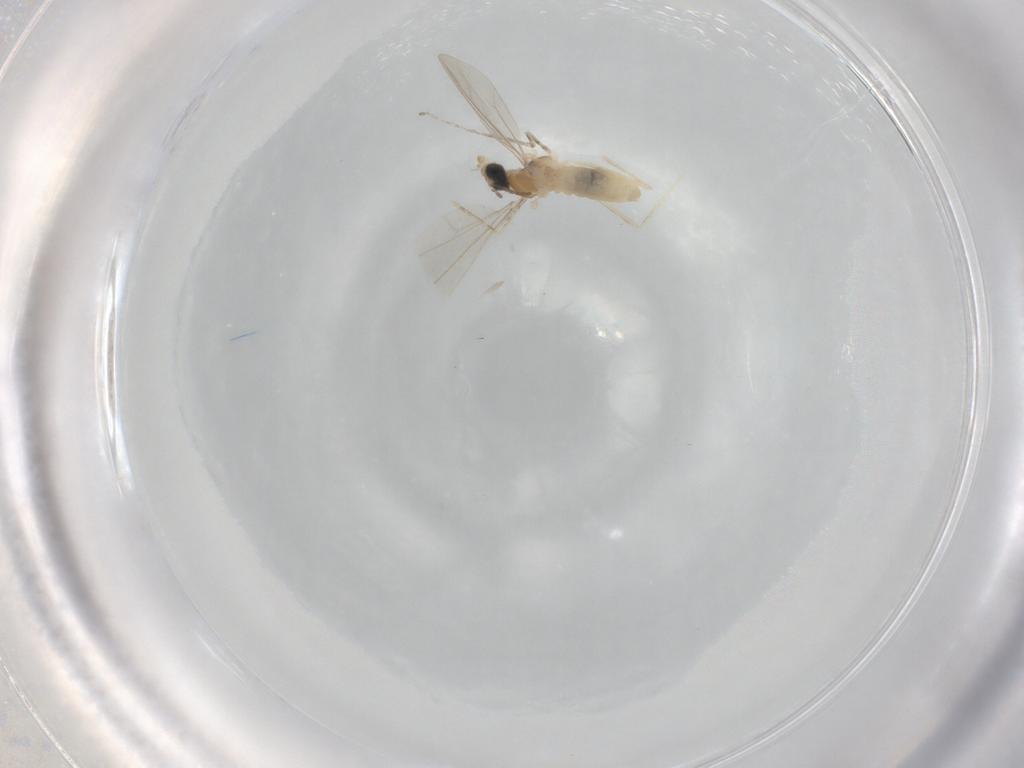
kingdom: Animalia
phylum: Arthropoda
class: Insecta
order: Diptera
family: Cecidomyiidae
